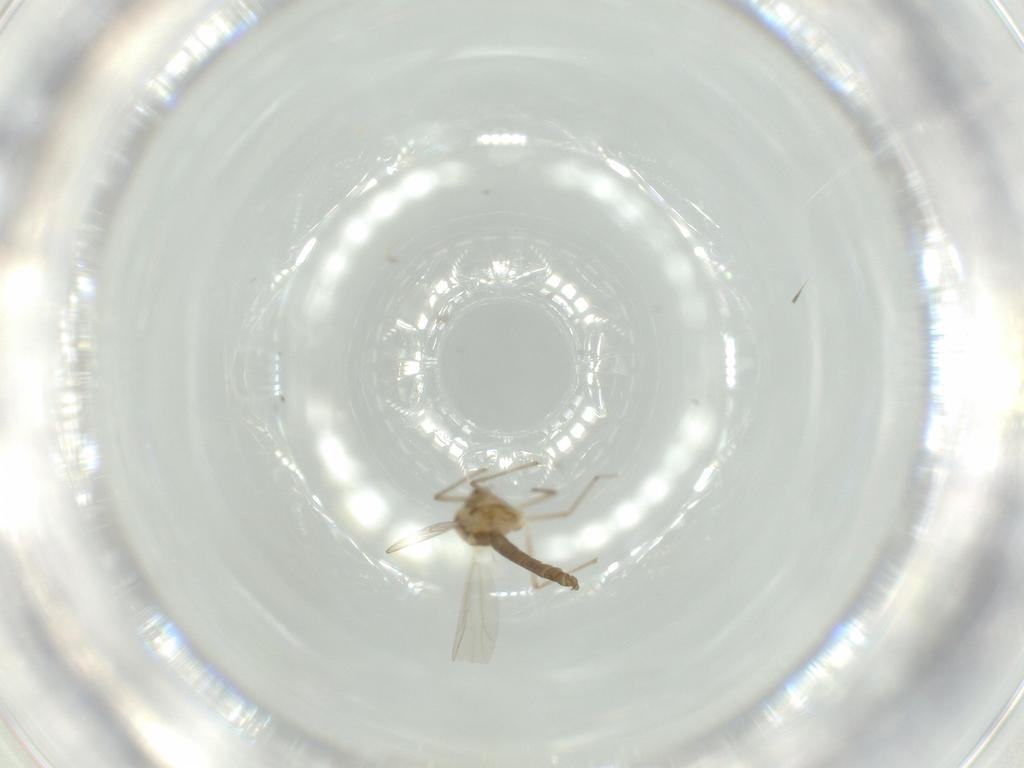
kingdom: Animalia
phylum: Arthropoda
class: Insecta
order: Diptera
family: Chironomidae
